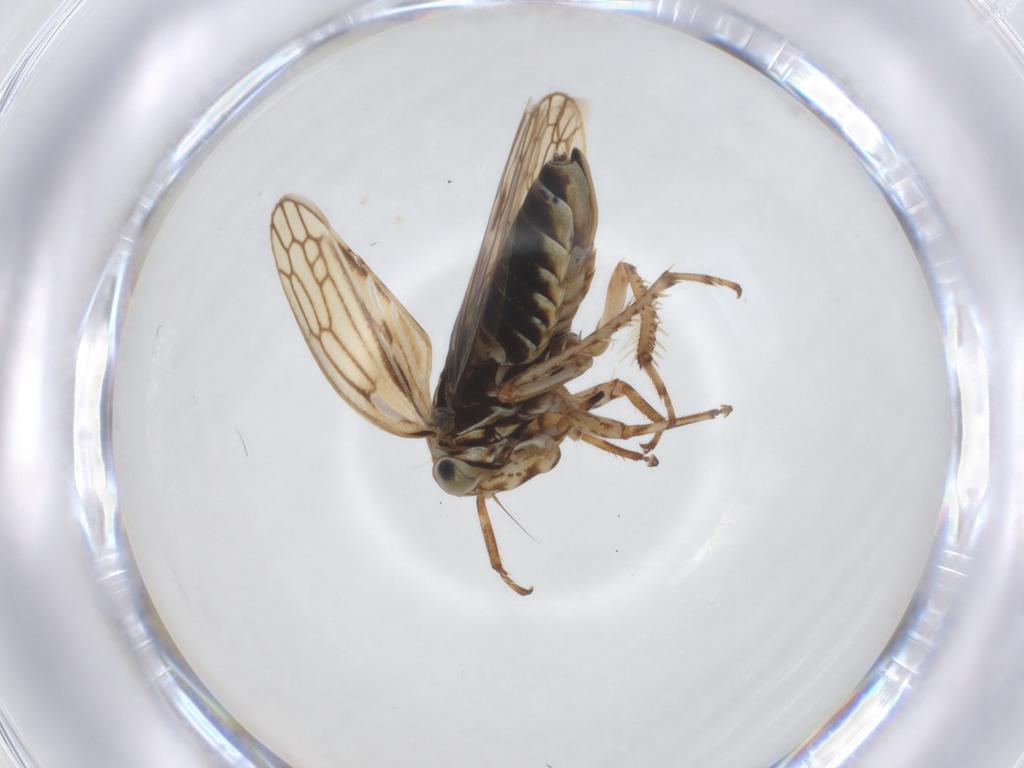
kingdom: Animalia
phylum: Arthropoda
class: Insecta
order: Hemiptera
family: Cicadellidae
